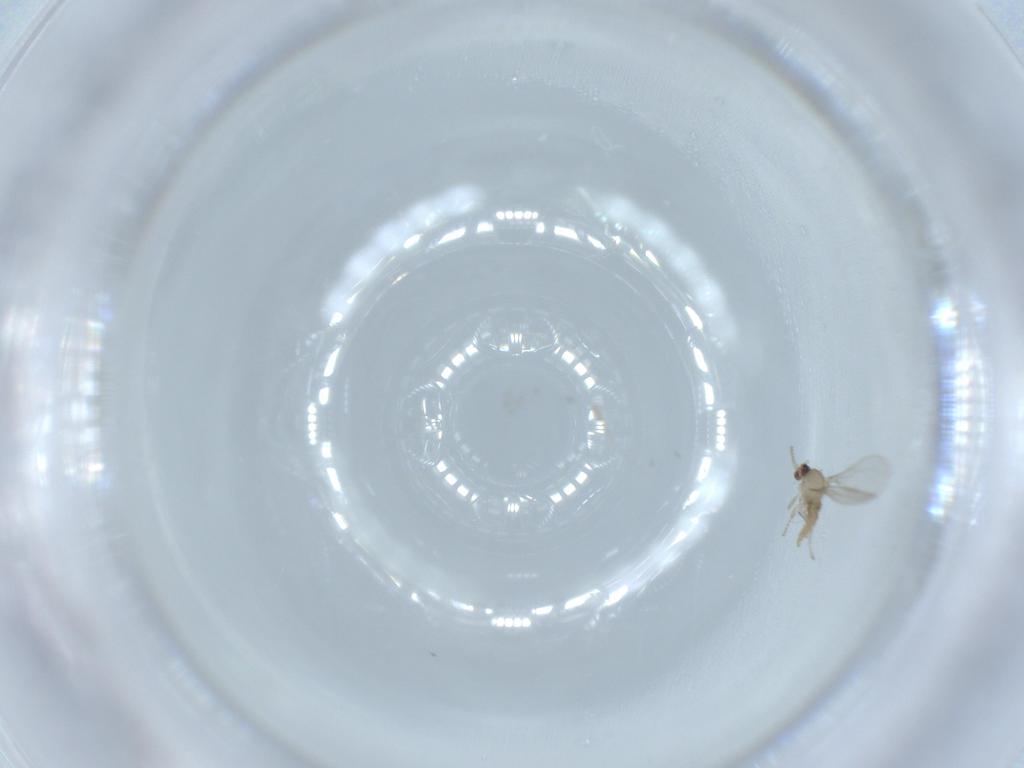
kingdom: Animalia
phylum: Arthropoda
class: Insecta
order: Diptera
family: Cecidomyiidae
